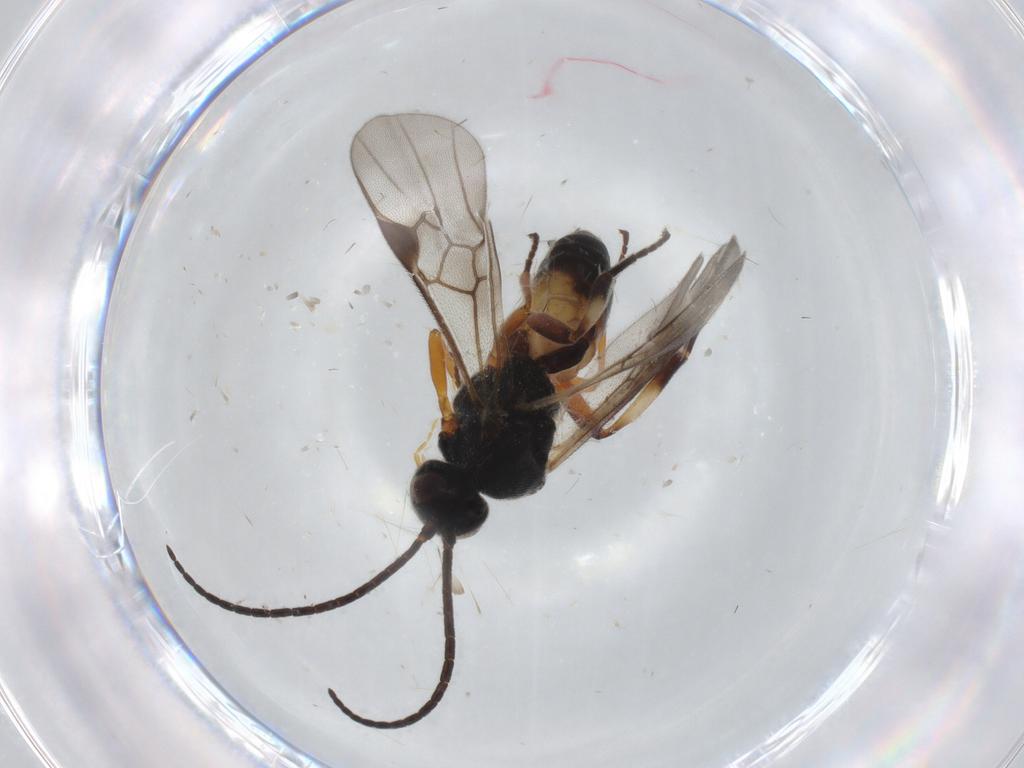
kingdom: Animalia
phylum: Arthropoda
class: Insecta
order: Hymenoptera
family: Braconidae
